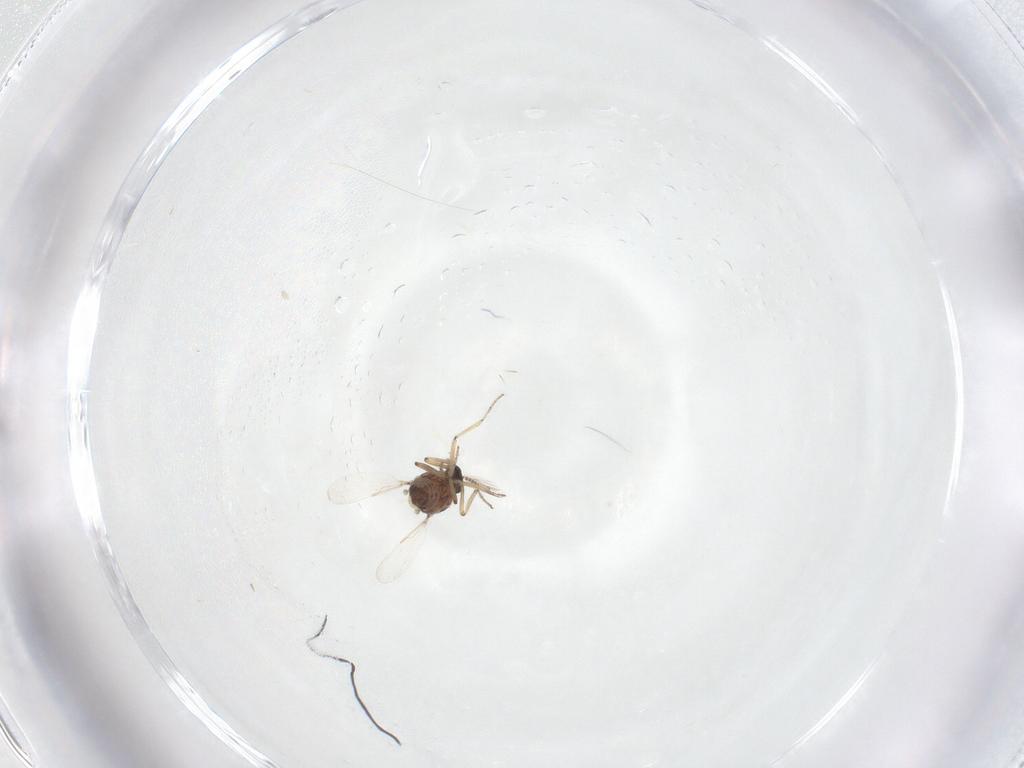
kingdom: Animalia
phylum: Arthropoda
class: Insecta
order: Diptera
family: Ceratopogonidae
